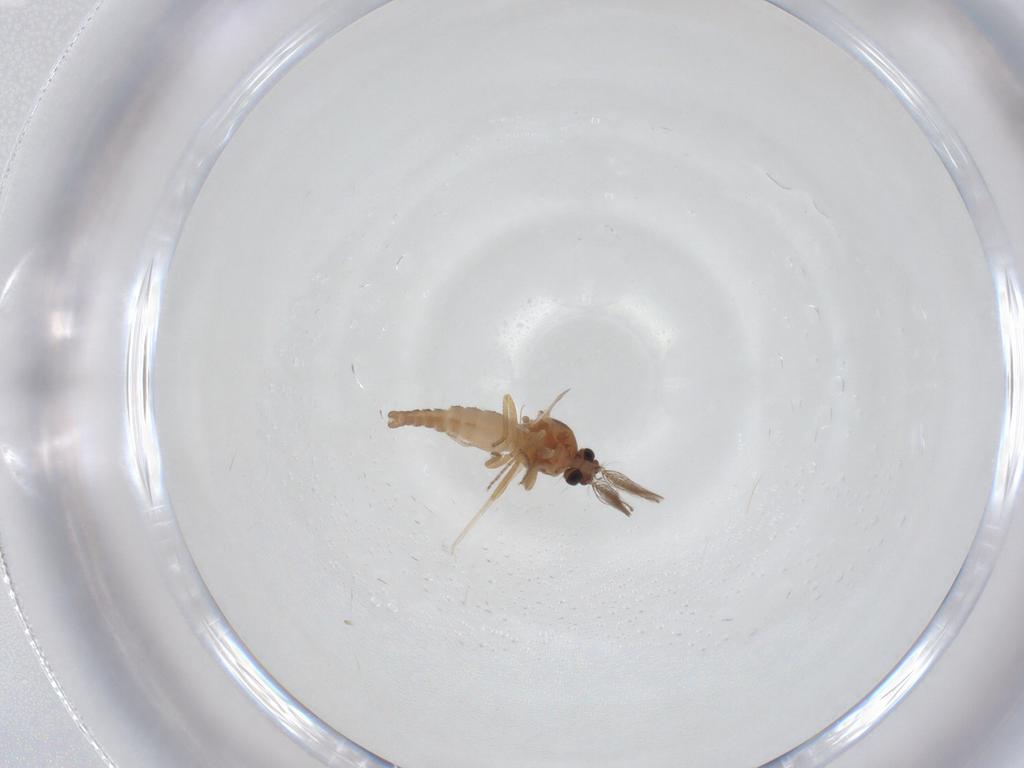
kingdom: Animalia
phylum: Arthropoda
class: Insecta
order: Diptera
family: Ceratopogonidae
